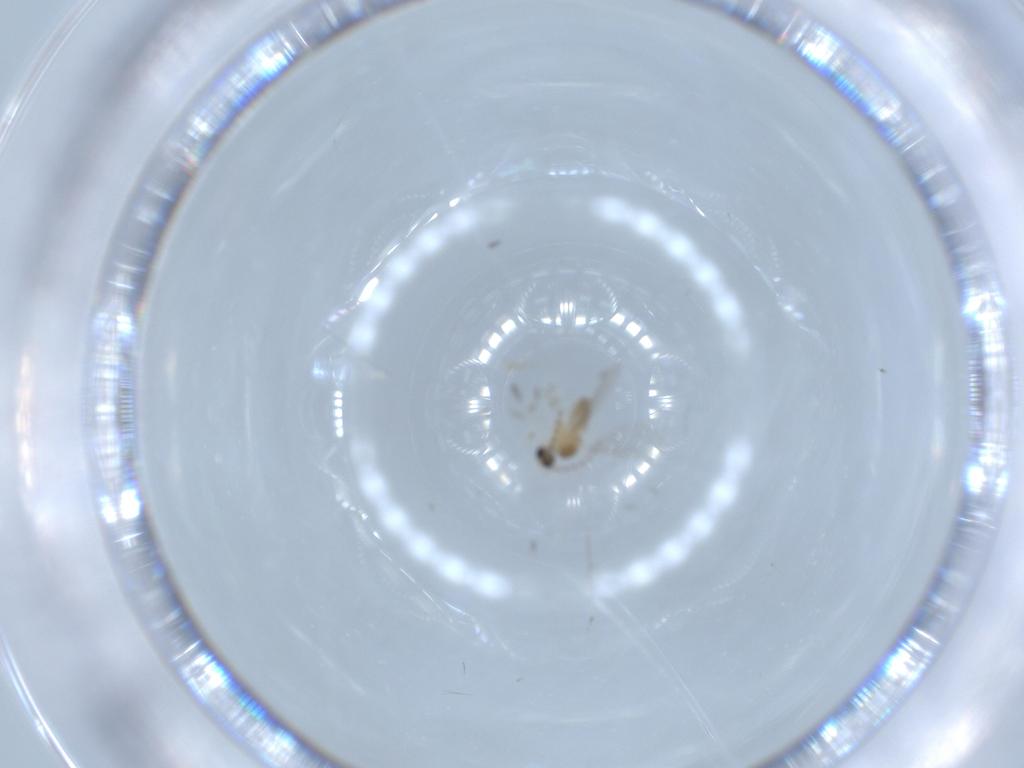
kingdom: Animalia
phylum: Arthropoda
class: Insecta
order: Diptera
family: Cecidomyiidae
